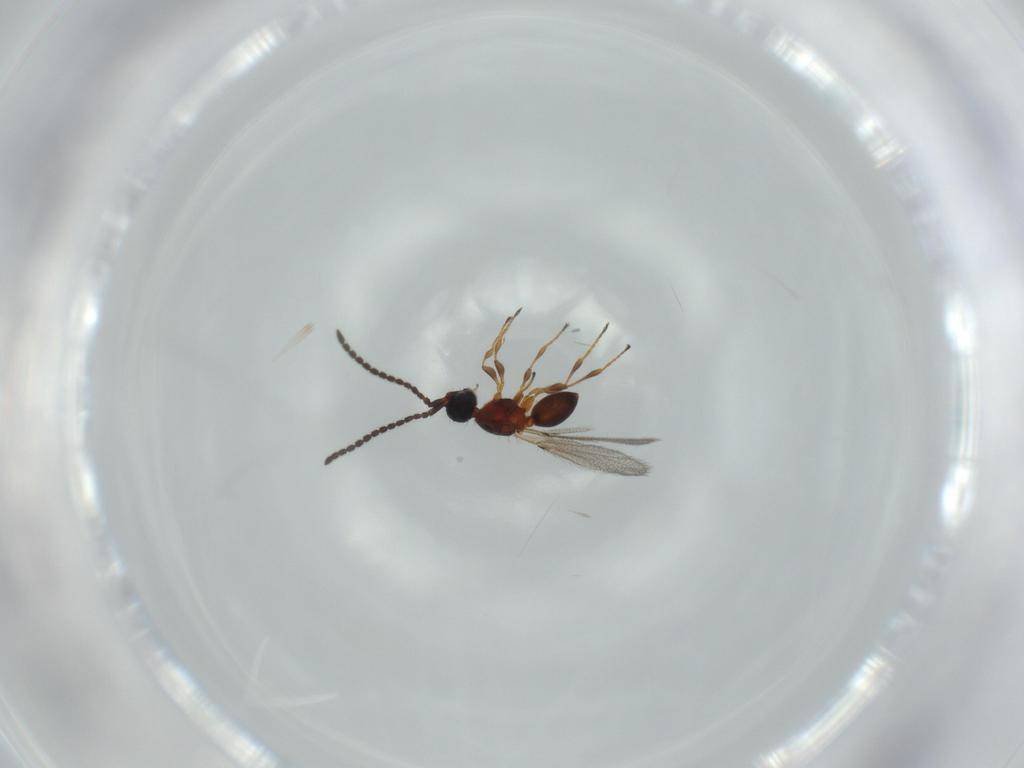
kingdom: Animalia
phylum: Arthropoda
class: Insecta
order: Hymenoptera
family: Diapriidae
